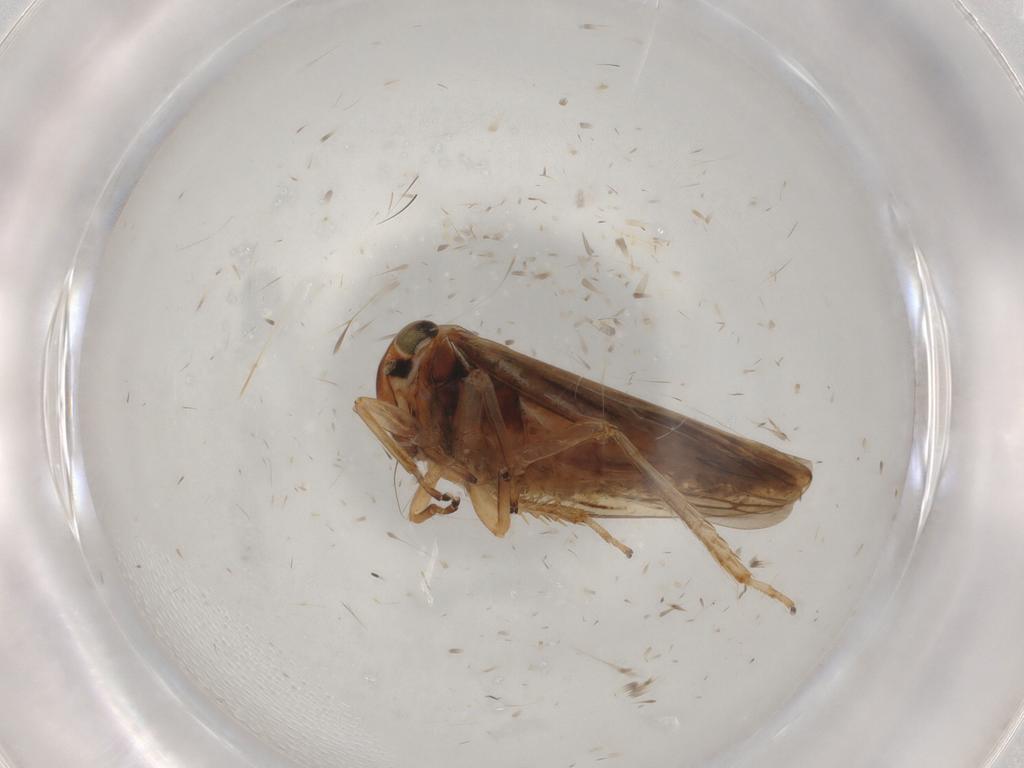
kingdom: Animalia
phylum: Arthropoda
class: Insecta
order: Hemiptera
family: Cicadellidae
